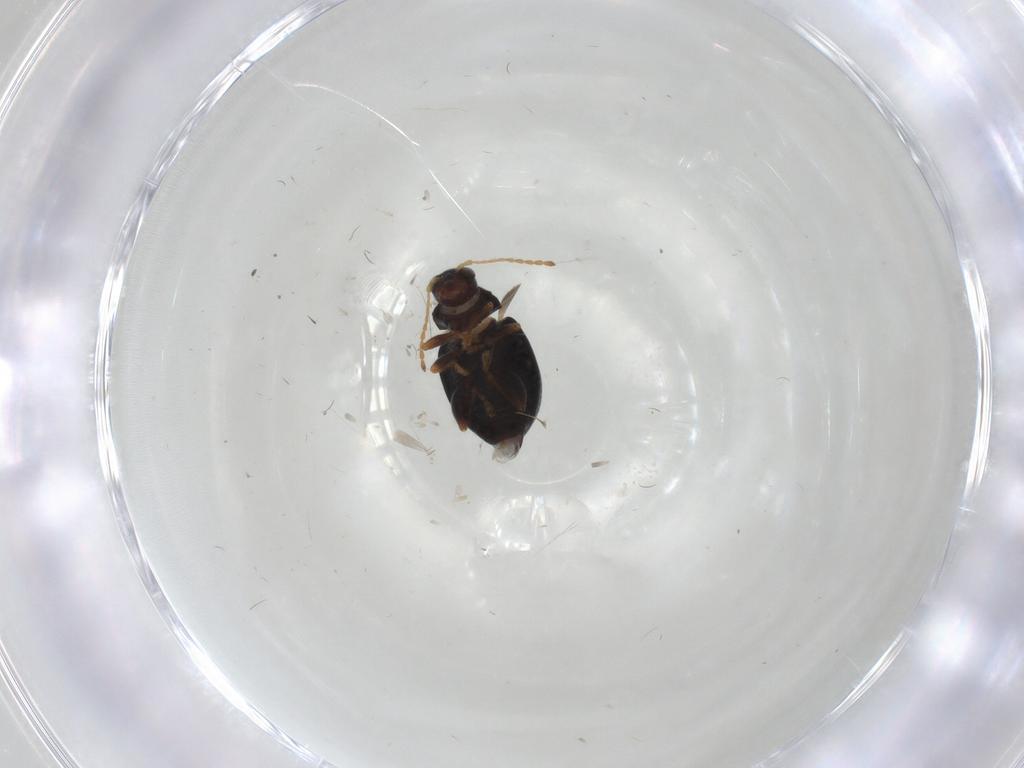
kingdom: Animalia
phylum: Arthropoda
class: Insecta
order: Coleoptera
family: Chrysomelidae
